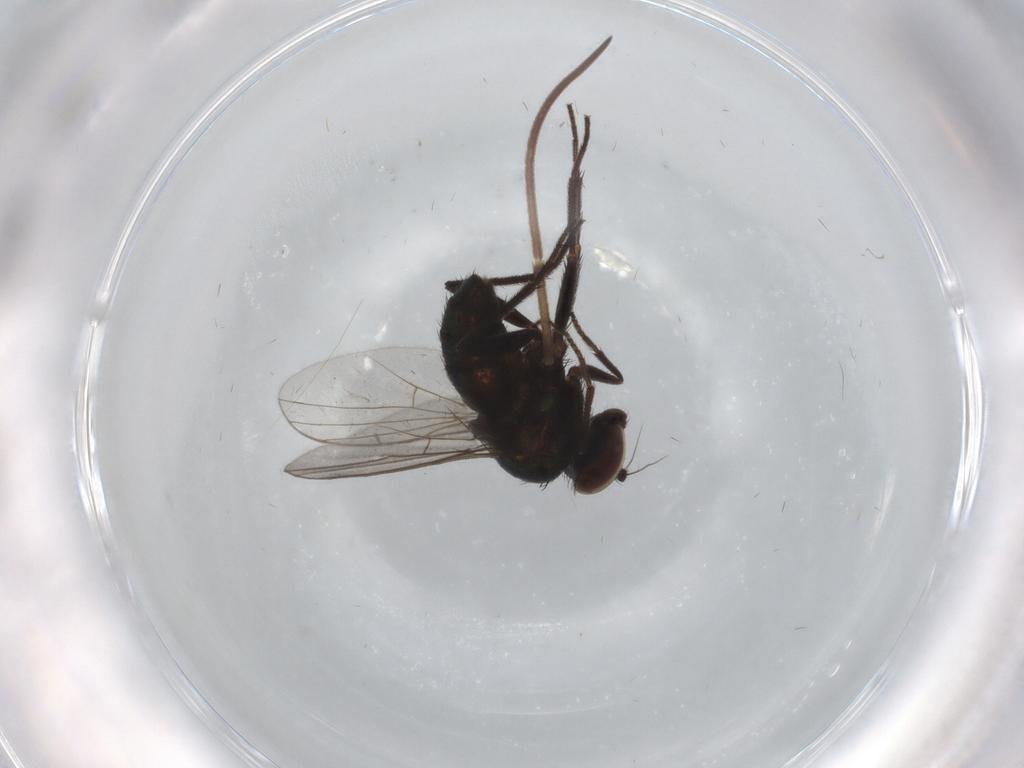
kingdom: Animalia
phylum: Arthropoda
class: Insecta
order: Diptera
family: Dolichopodidae
